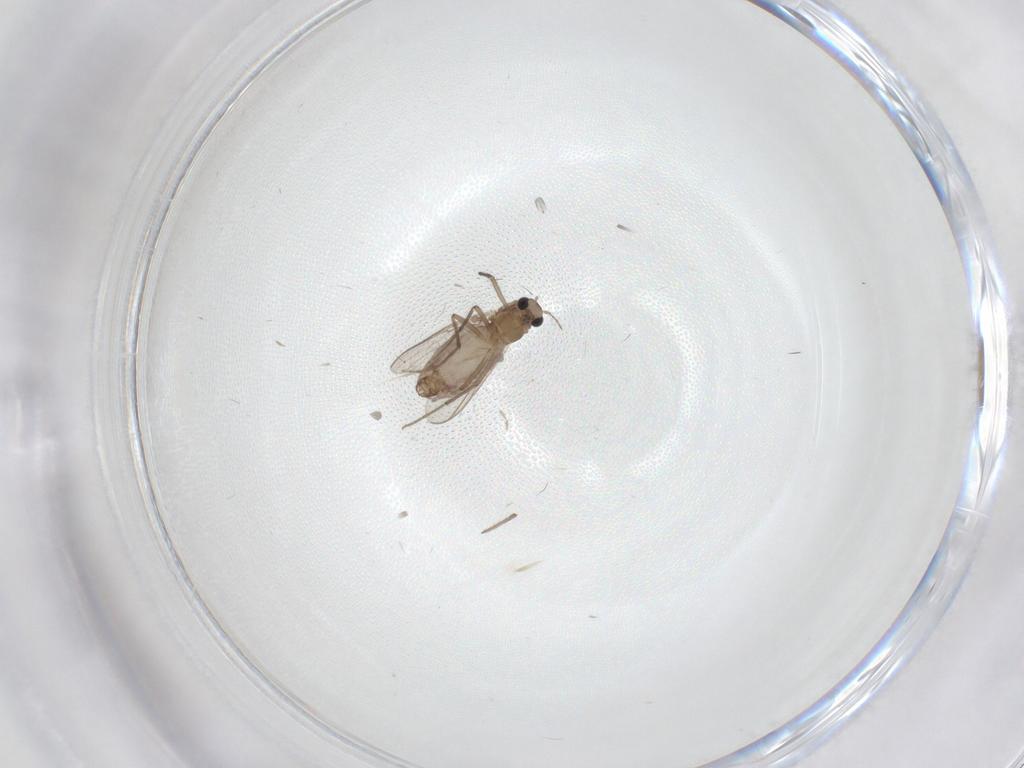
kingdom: Animalia
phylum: Arthropoda
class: Insecta
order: Diptera
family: Chironomidae
